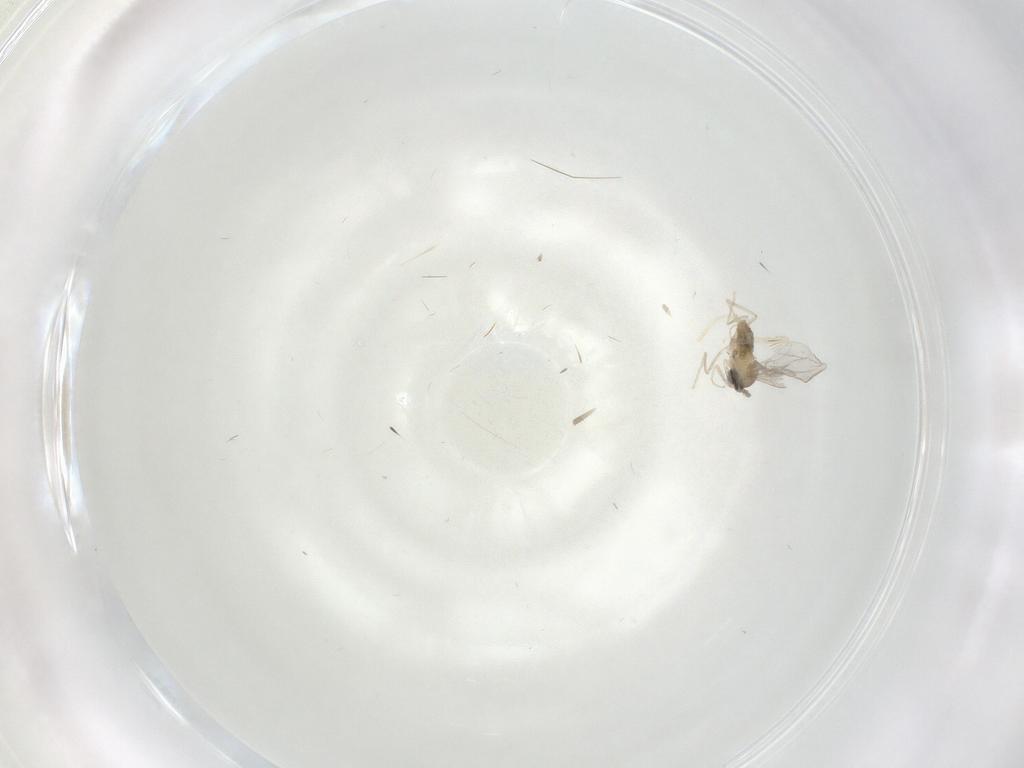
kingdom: Animalia
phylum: Arthropoda
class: Insecta
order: Diptera
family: Cecidomyiidae
